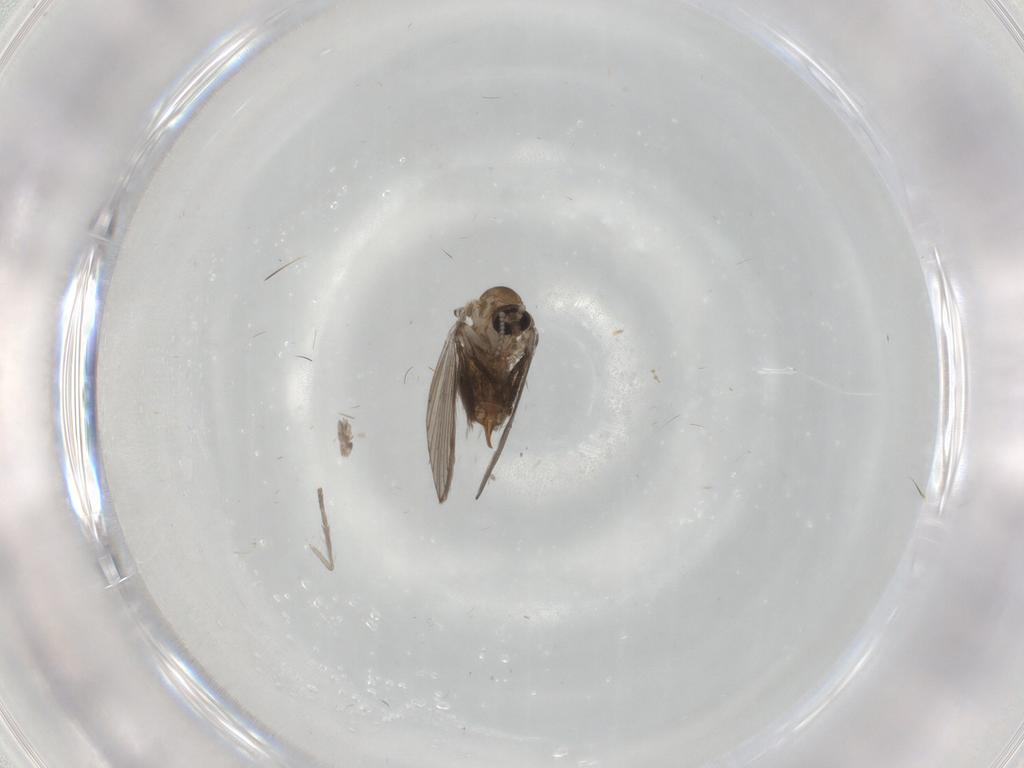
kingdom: Animalia
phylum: Arthropoda
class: Insecta
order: Diptera
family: Psychodidae
